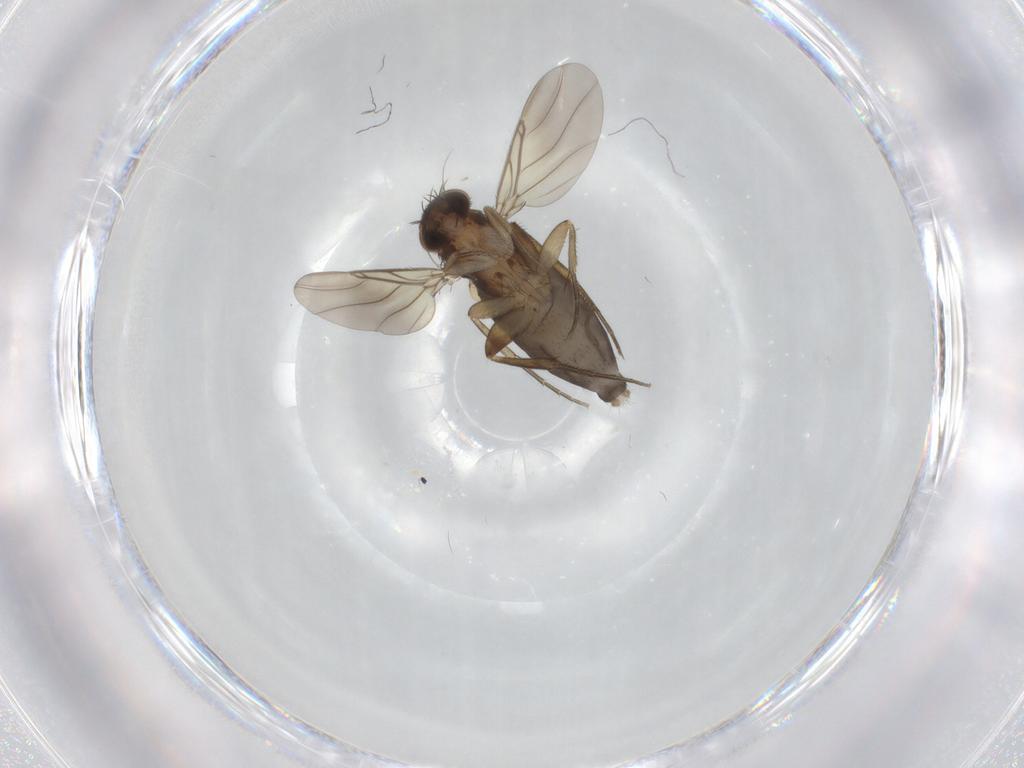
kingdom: Animalia
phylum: Arthropoda
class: Insecta
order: Diptera
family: Phoridae
